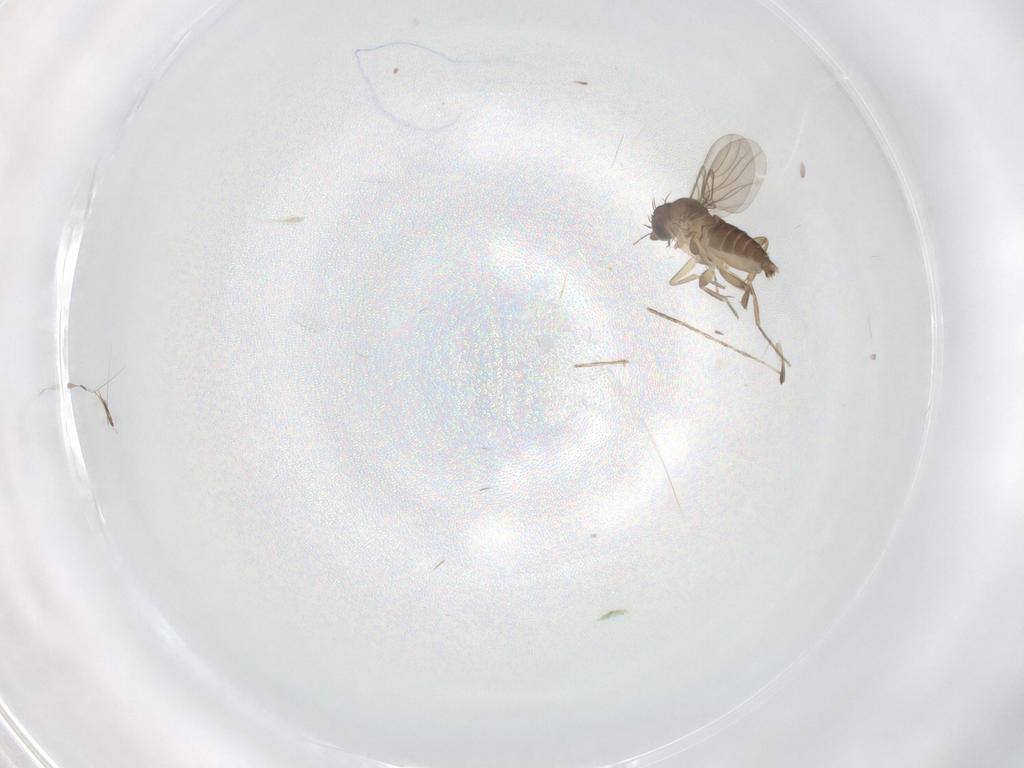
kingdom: Animalia
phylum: Arthropoda
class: Insecta
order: Diptera
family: Cecidomyiidae
